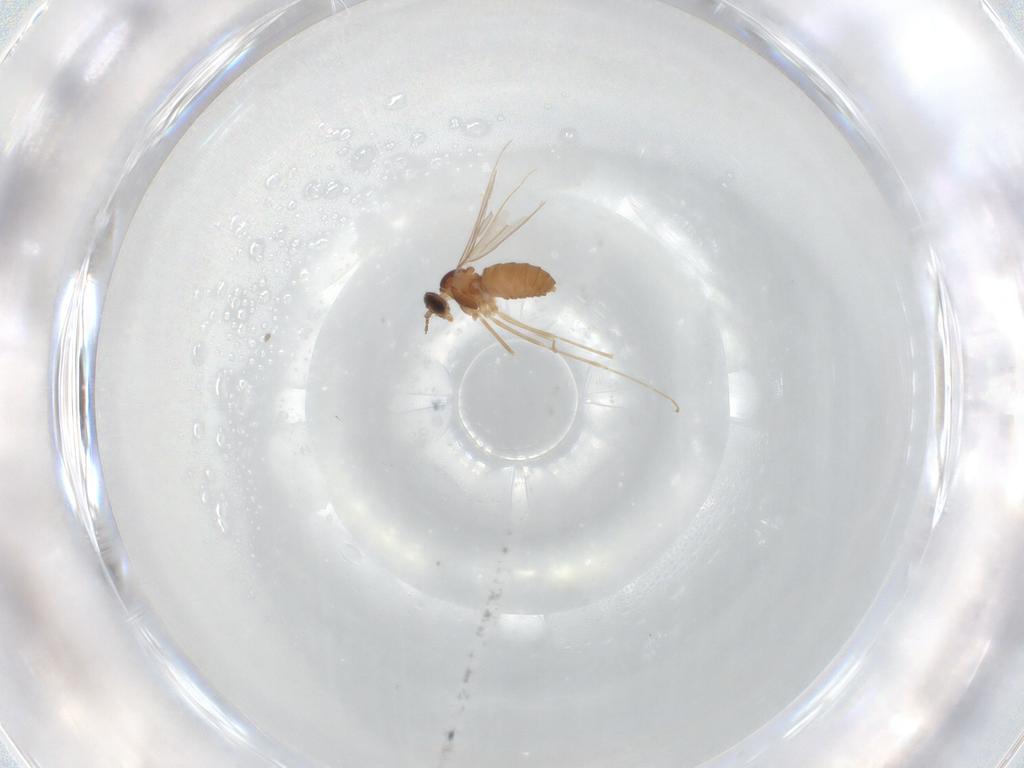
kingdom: Animalia
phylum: Arthropoda
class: Insecta
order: Diptera
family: Cecidomyiidae
